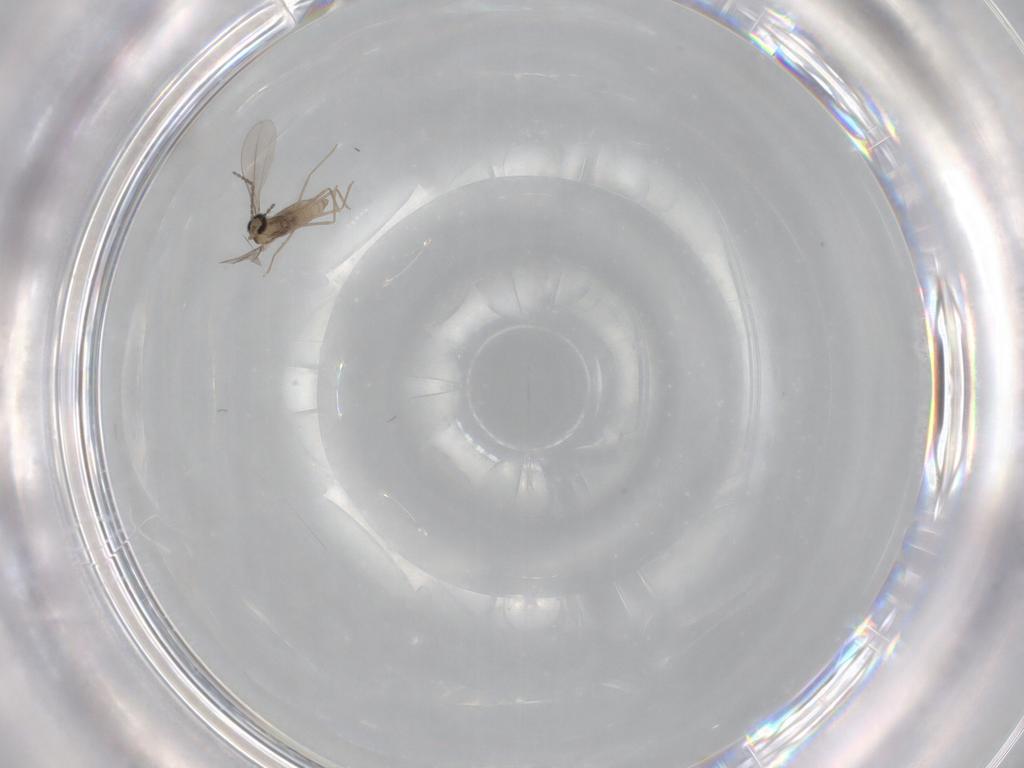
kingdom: Animalia
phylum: Arthropoda
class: Insecta
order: Diptera
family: Cecidomyiidae
